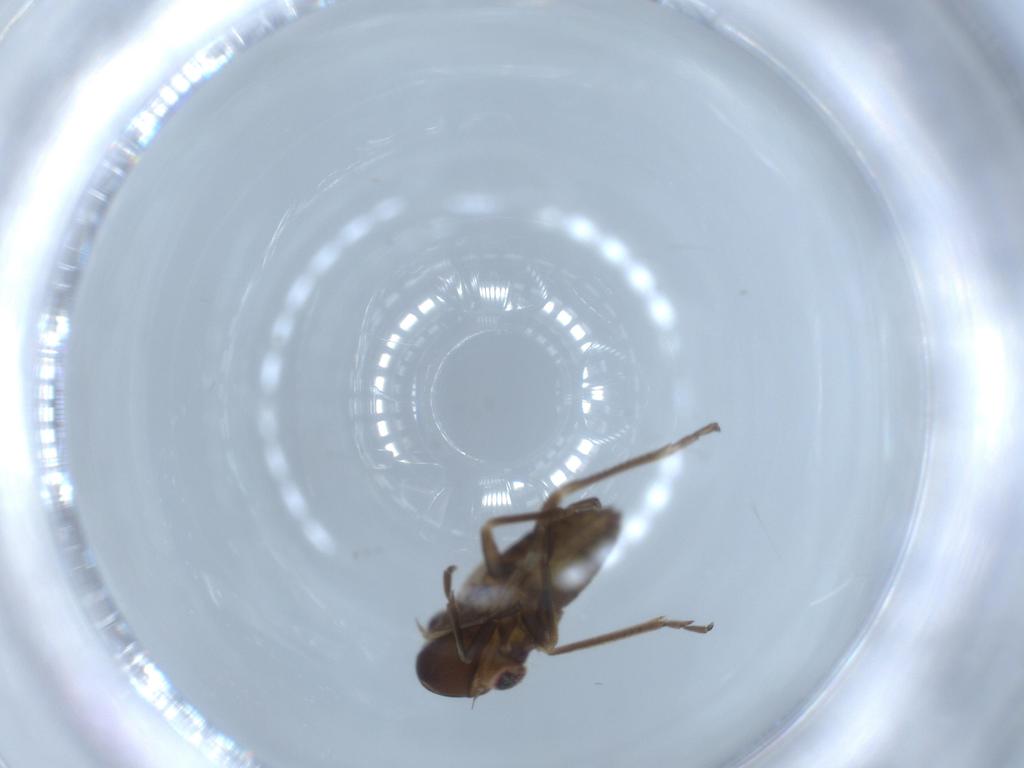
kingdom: Animalia
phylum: Arthropoda
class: Insecta
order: Hemiptera
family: Cicadellidae
